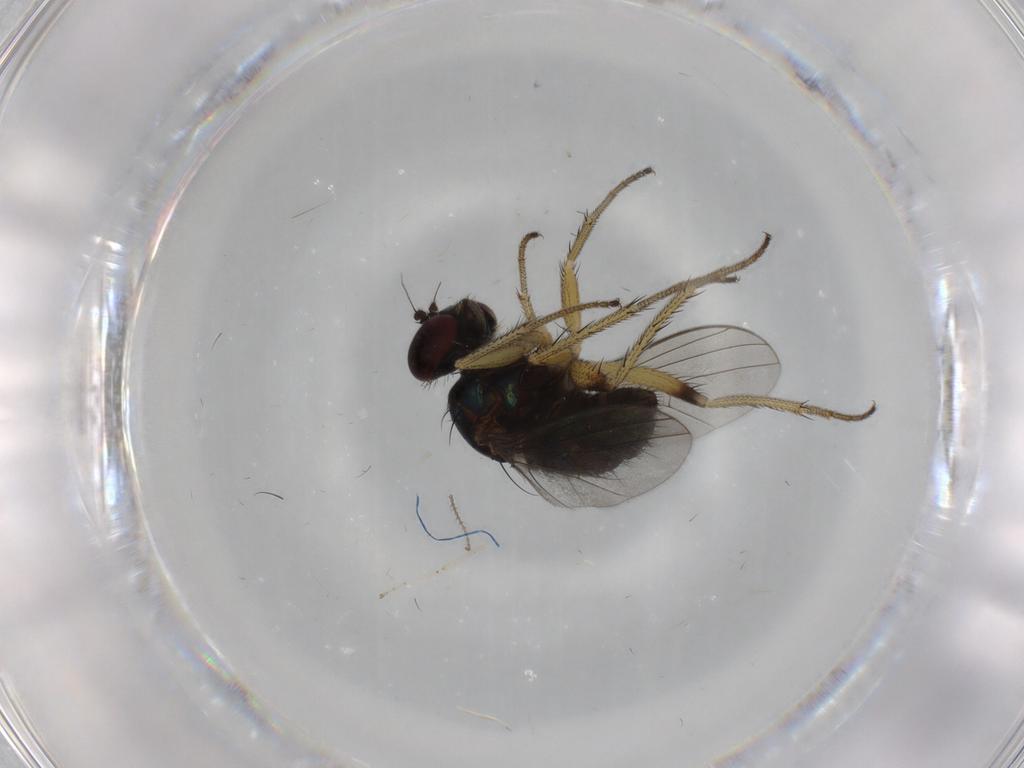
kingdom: Animalia
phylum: Arthropoda
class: Insecta
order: Diptera
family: Dolichopodidae
